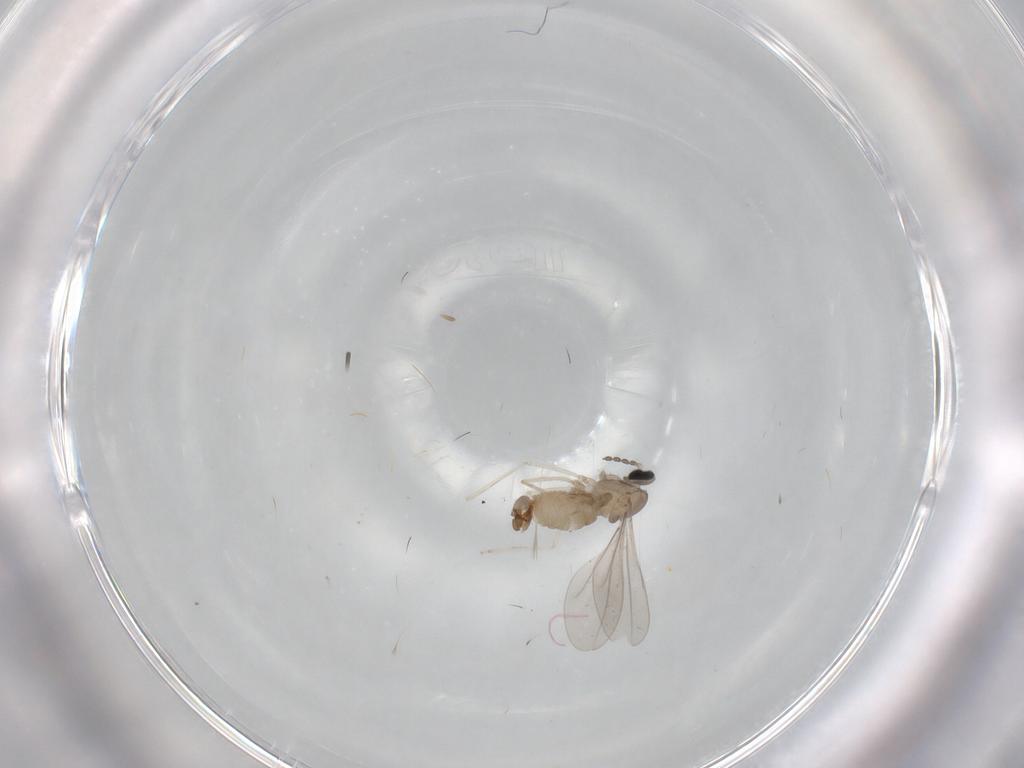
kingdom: Animalia
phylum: Arthropoda
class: Insecta
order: Diptera
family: Cecidomyiidae
